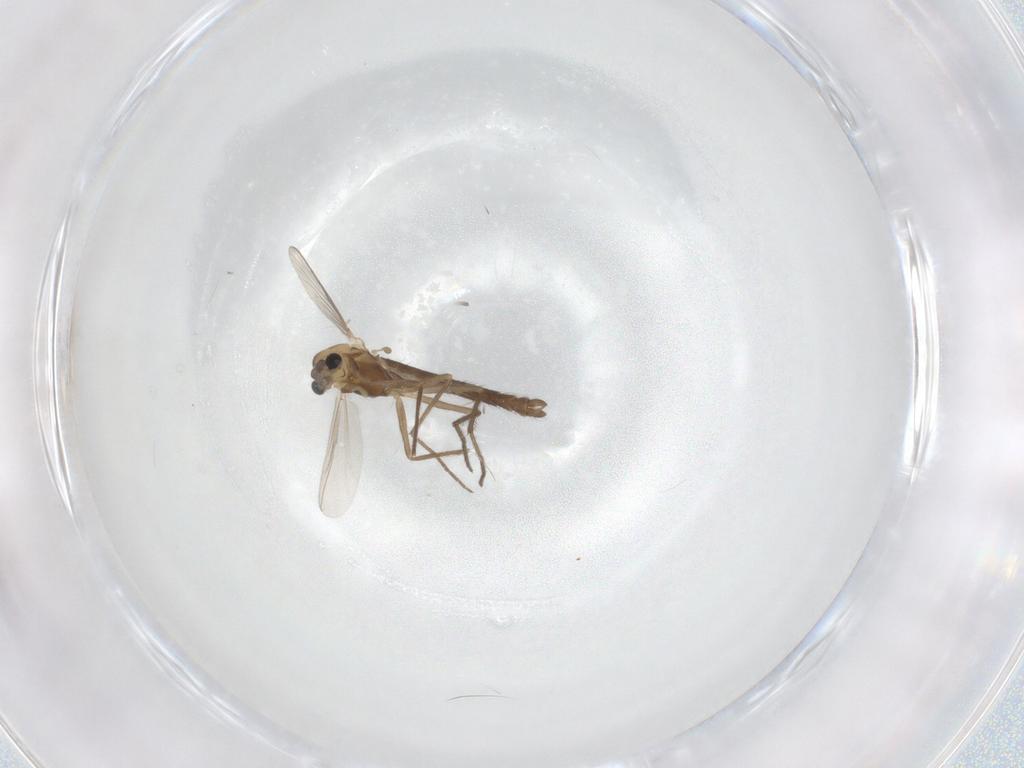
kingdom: Animalia
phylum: Arthropoda
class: Insecta
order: Diptera
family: Chironomidae
